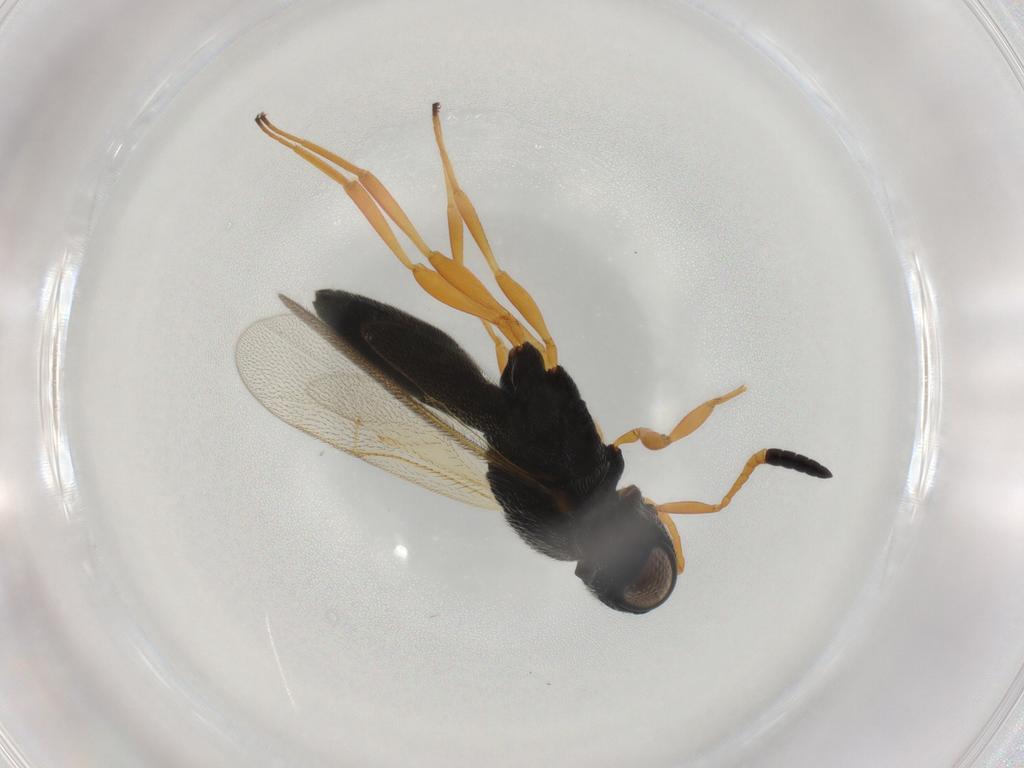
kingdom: Animalia
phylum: Arthropoda
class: Insecta
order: Hymenoptera
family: Scelionidae
